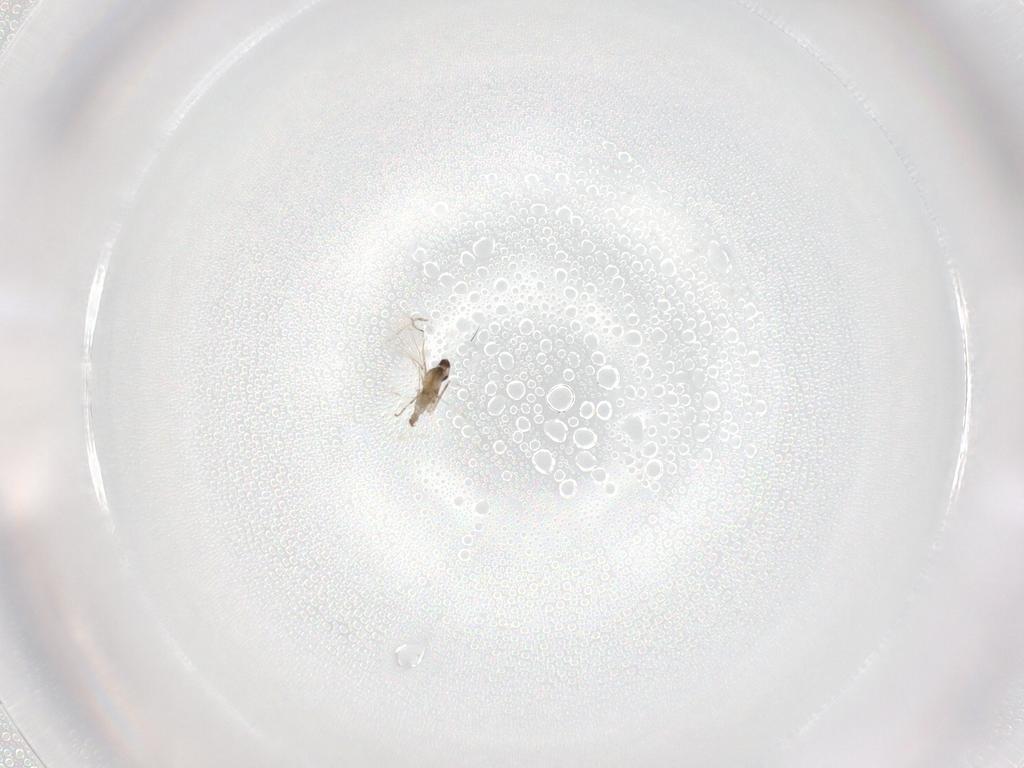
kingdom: Animalia
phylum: Arthropoda
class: Insecta
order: Diptera
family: Cecidomyiidae
